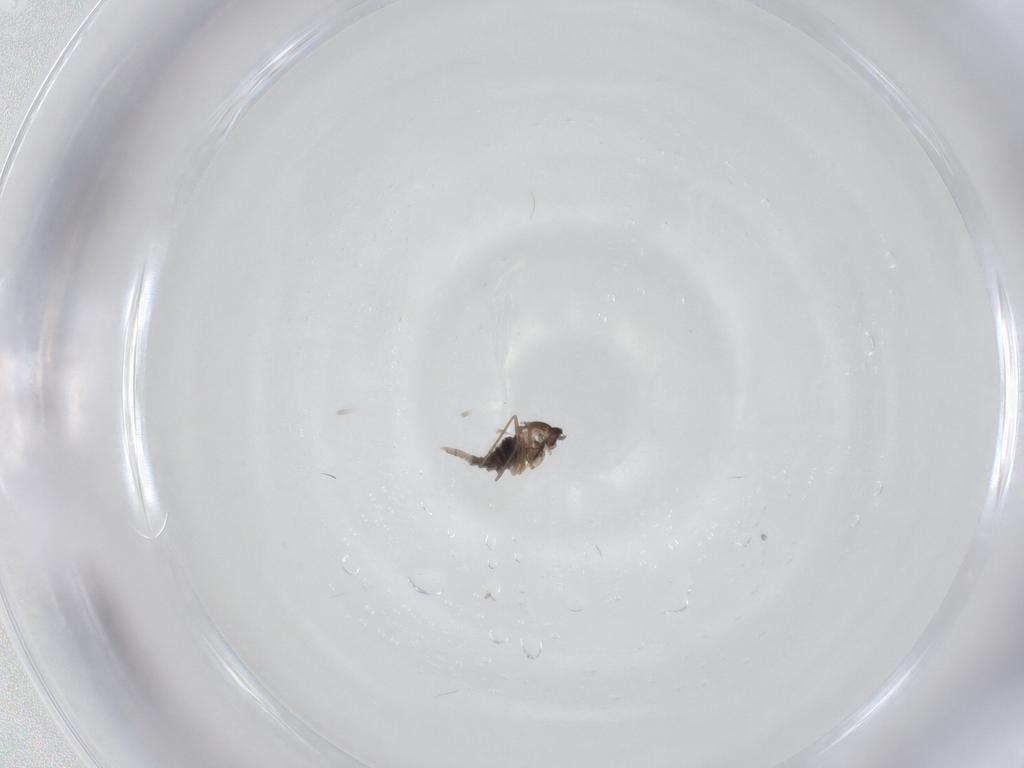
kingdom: Animalia
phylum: Arthropoda
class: Insecta
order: Diptera
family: Cecidomyiidae
